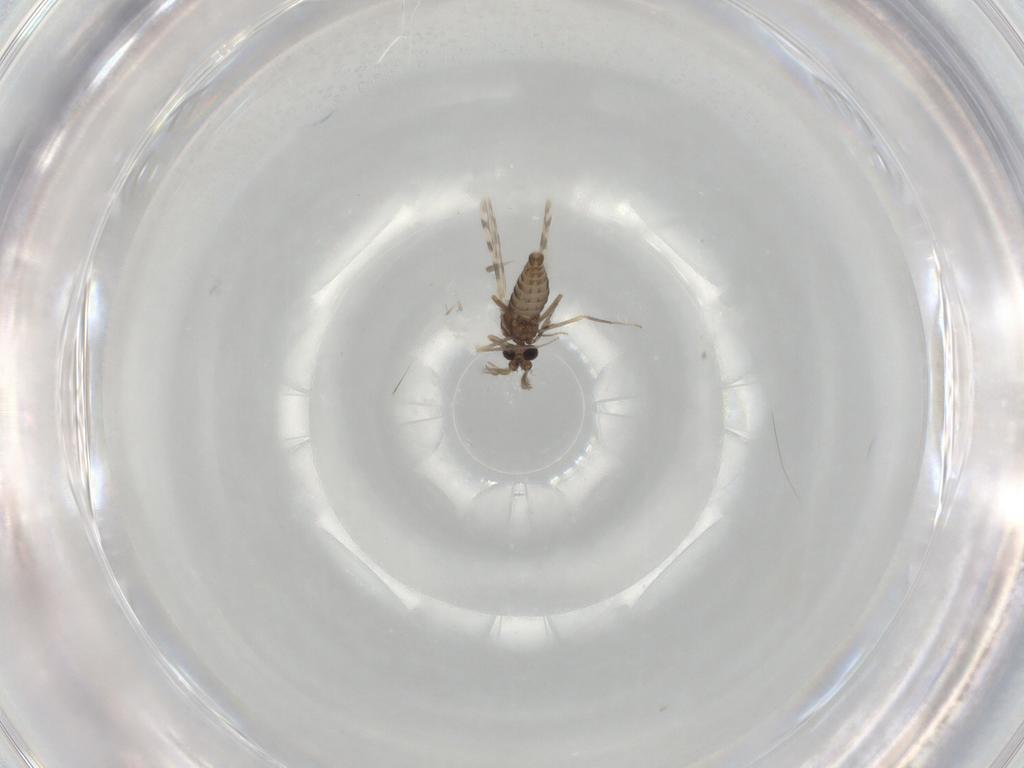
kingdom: Animalia
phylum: Arthropoda
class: Insecta
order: Diptera
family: Ceratopogonidae
